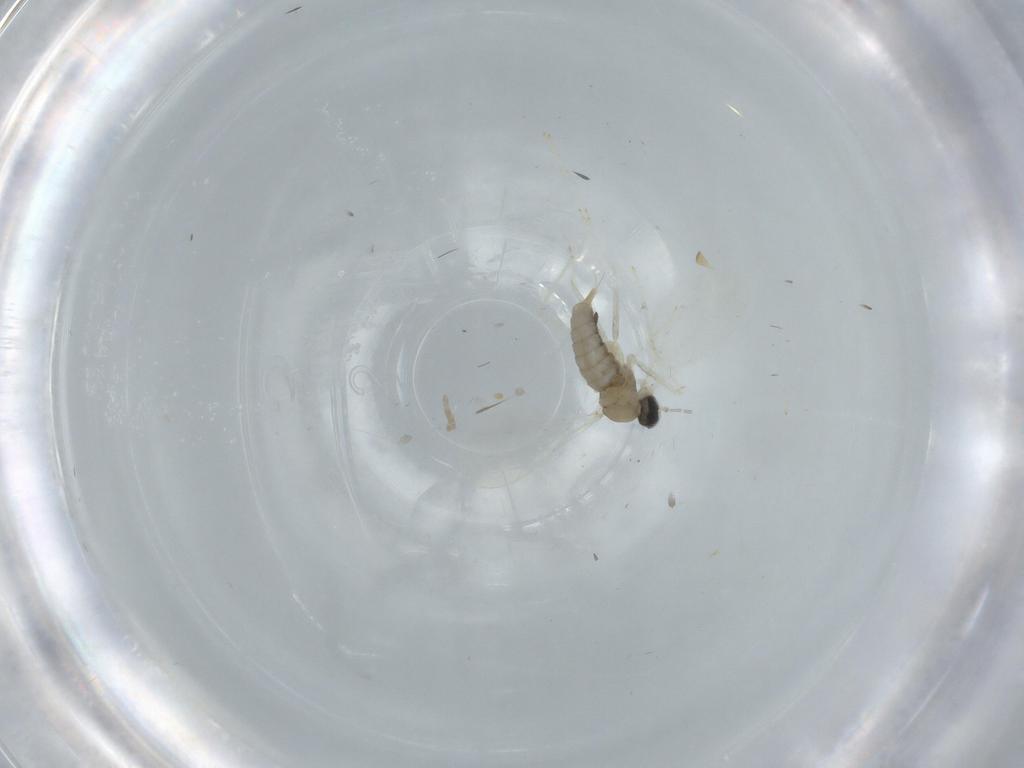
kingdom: Animalia
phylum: Arthropoda
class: Insecta
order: Diptera
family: Cecidomyiidae
